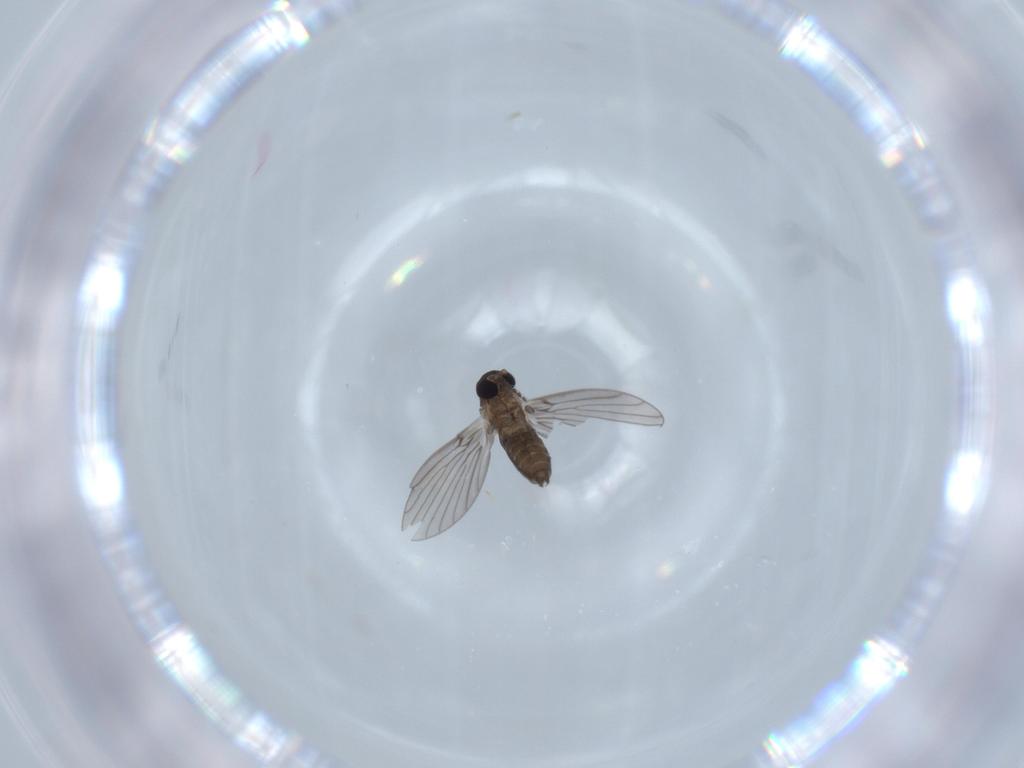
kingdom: Animalia
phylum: Arthropoda
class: Insecta
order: Diptera
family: Psychodidae
